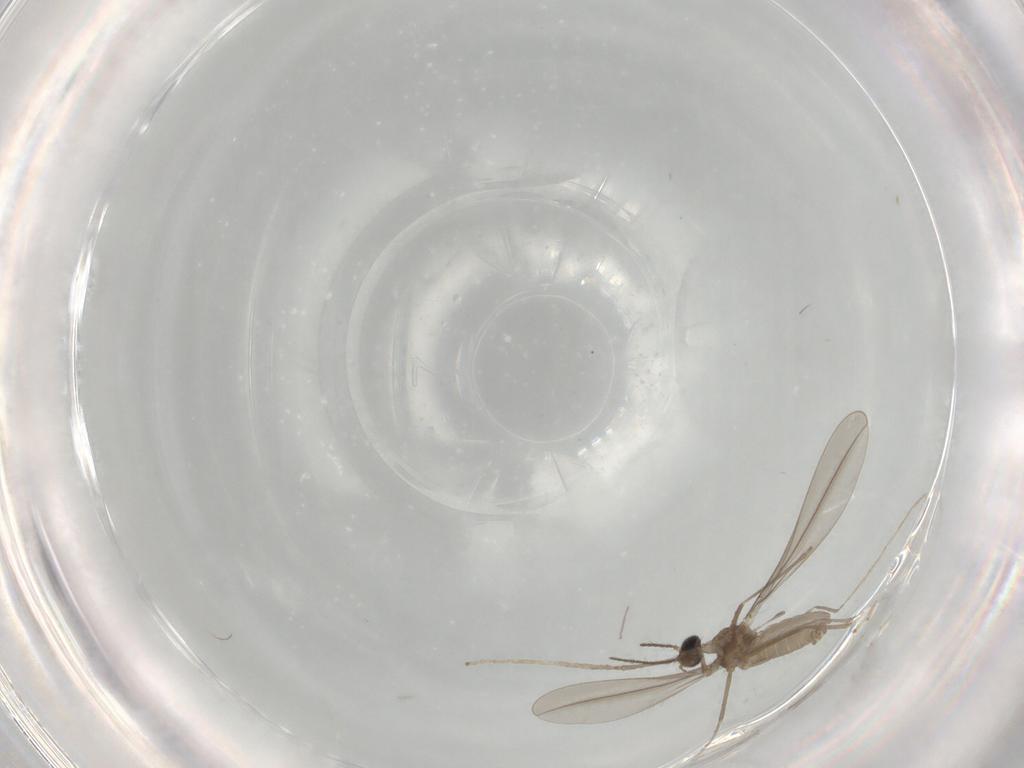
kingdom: Animalia
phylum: Arthropoda
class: Insecta
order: Diptera
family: Cecidomyiidae
